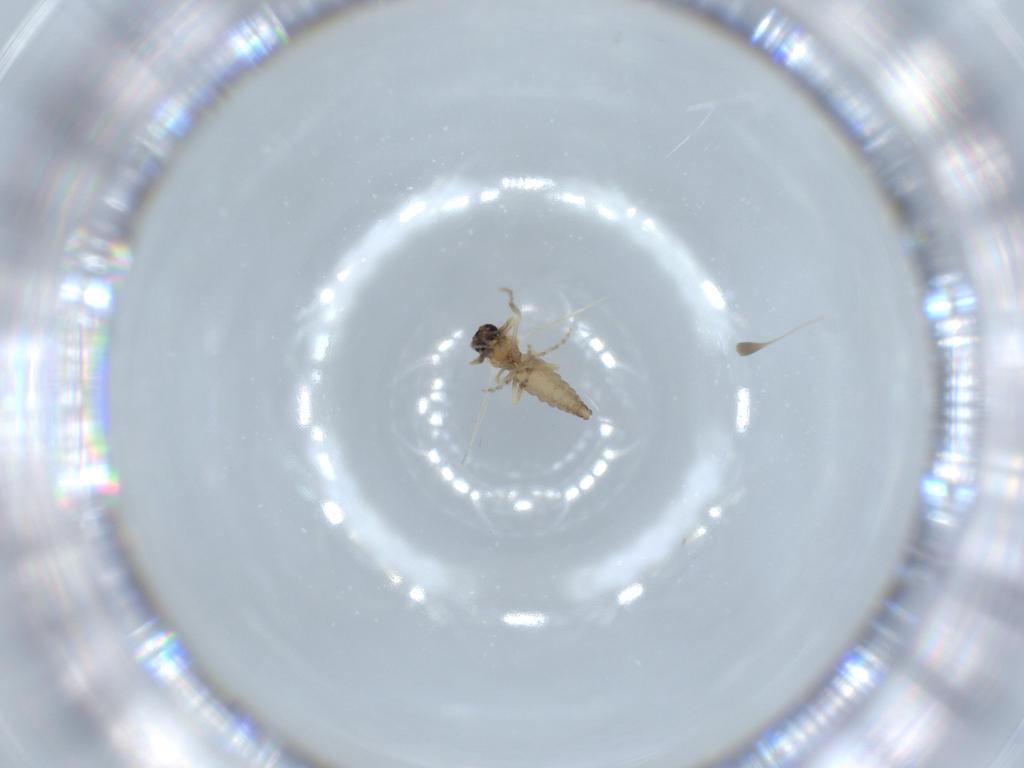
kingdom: Animalia
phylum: Arthropoda
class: Insecta
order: Diptera
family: Ceratopogonidae
